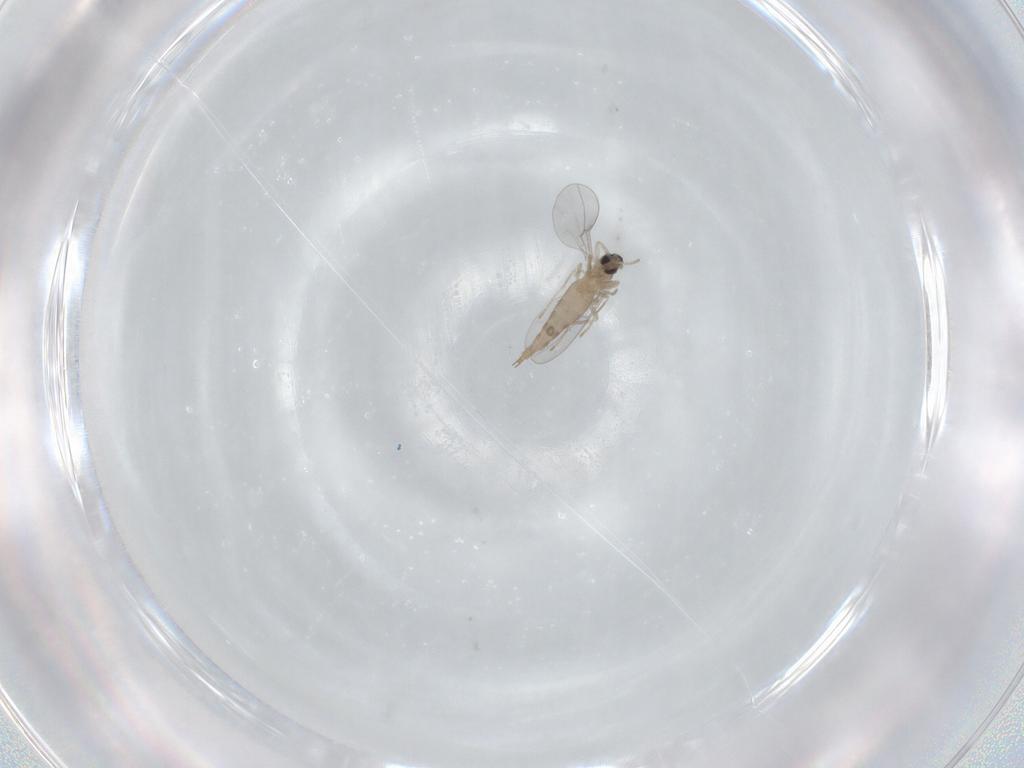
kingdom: Animalia
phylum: Arthropoda
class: Insecta
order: Diptera
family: Cecidomyiidae
